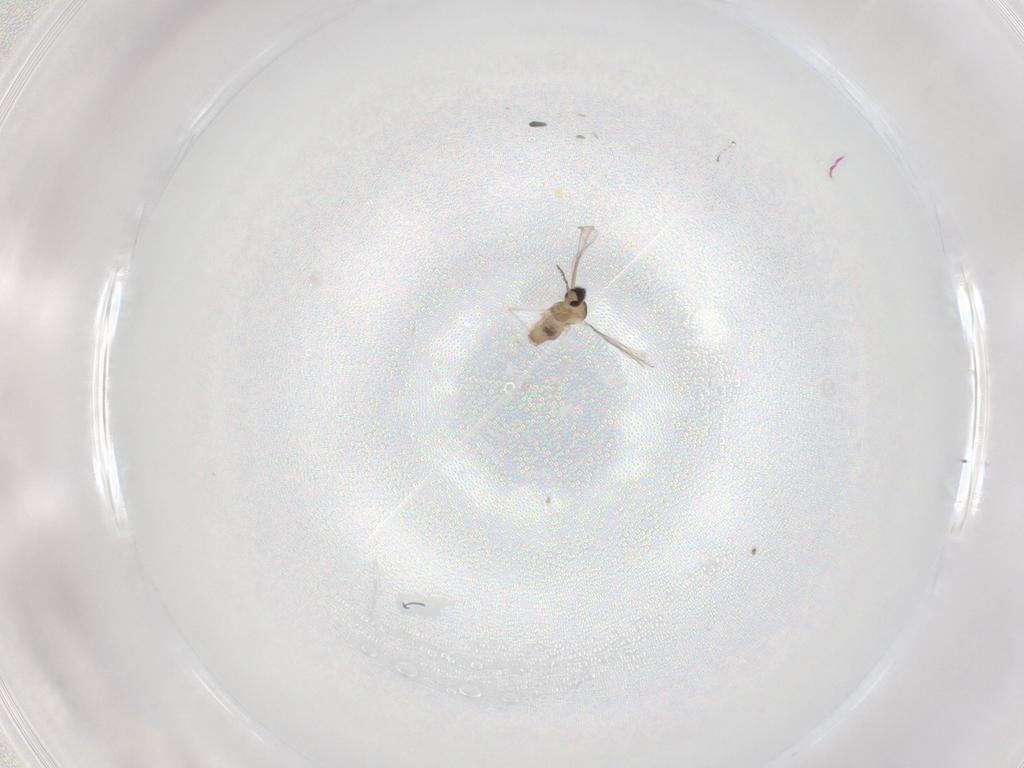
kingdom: Animalia
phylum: Arthropoda
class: Insecta
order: Diptera
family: Cecidomyiidae
